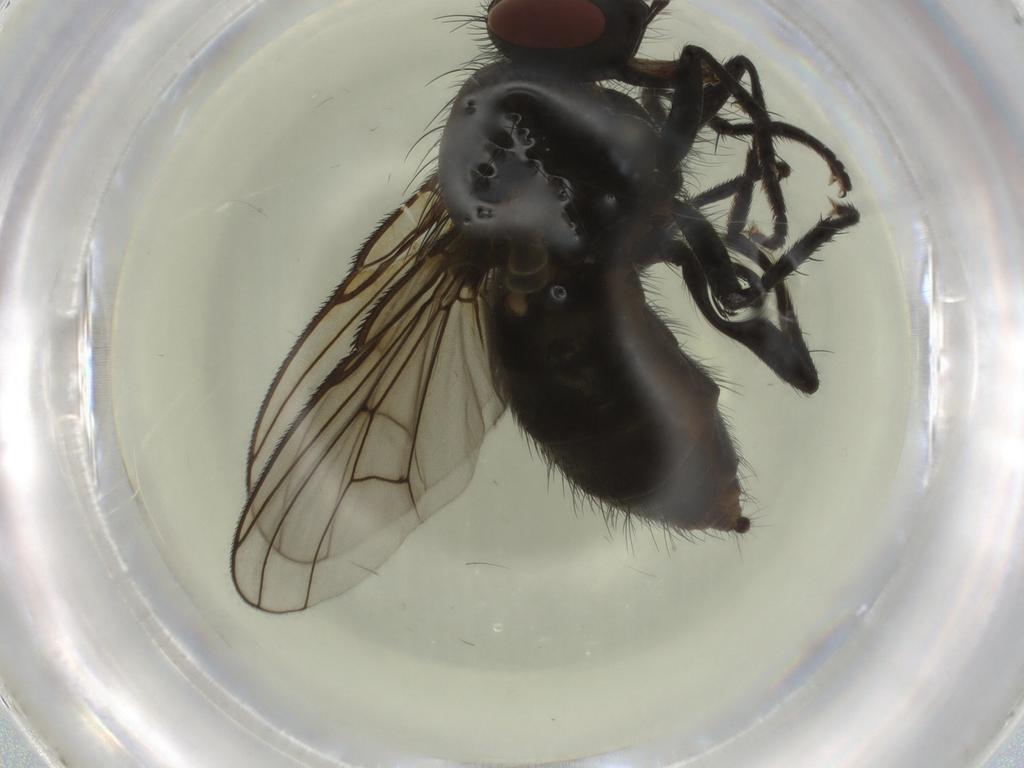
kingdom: Animalia
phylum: Arthropoda
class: Insecta
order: Diptera
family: Muscidae
